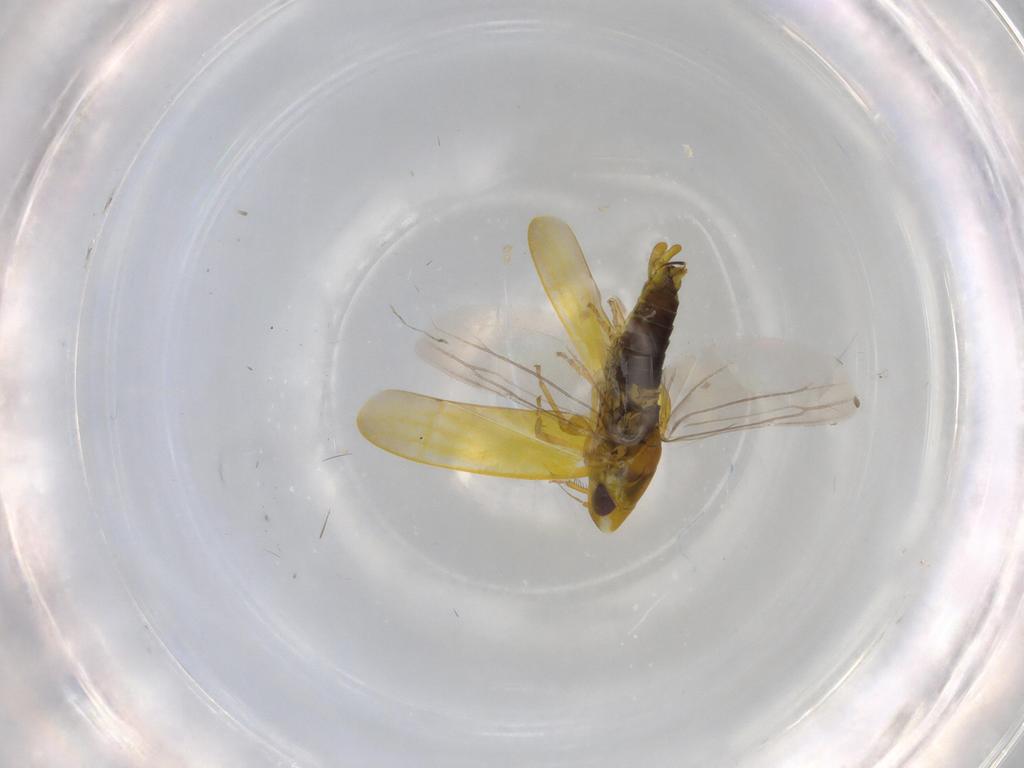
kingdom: Animalia
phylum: Arthropoda
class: Insecta
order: Hemiptera
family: Cicadellidae
